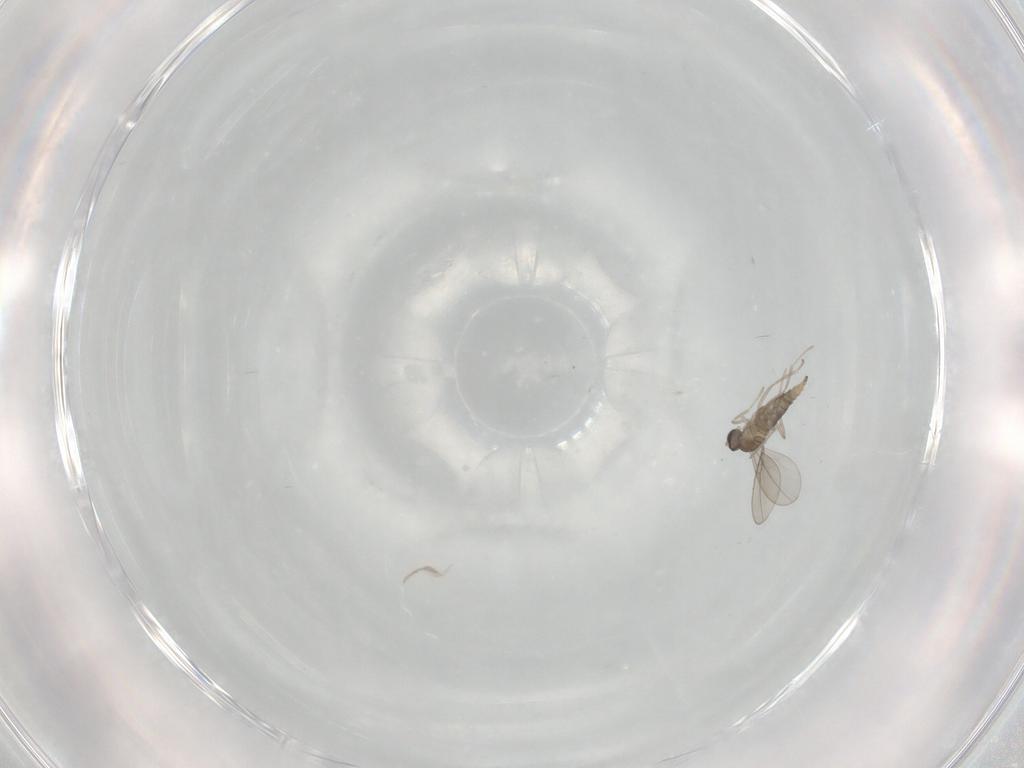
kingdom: Animalia
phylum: Arthropoda
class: Insecta
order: Diptera
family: Cecidomyiidae
